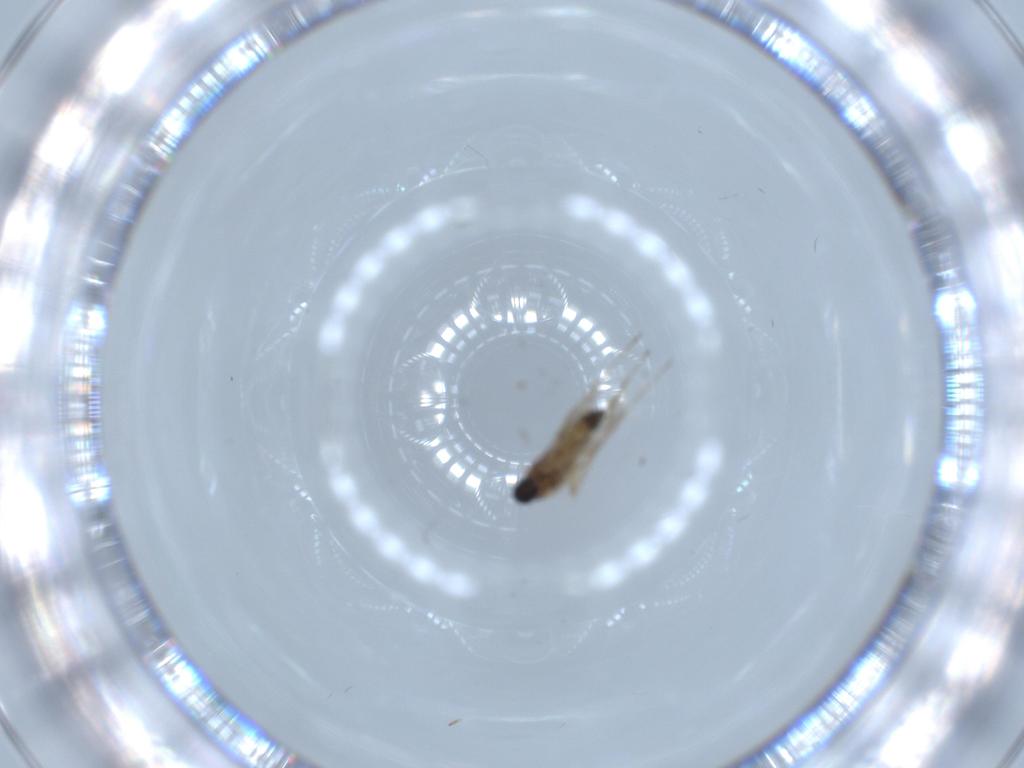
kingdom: Animalia
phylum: Arthropoda
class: Insecta
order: Diptera
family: Cecidomyiidae
